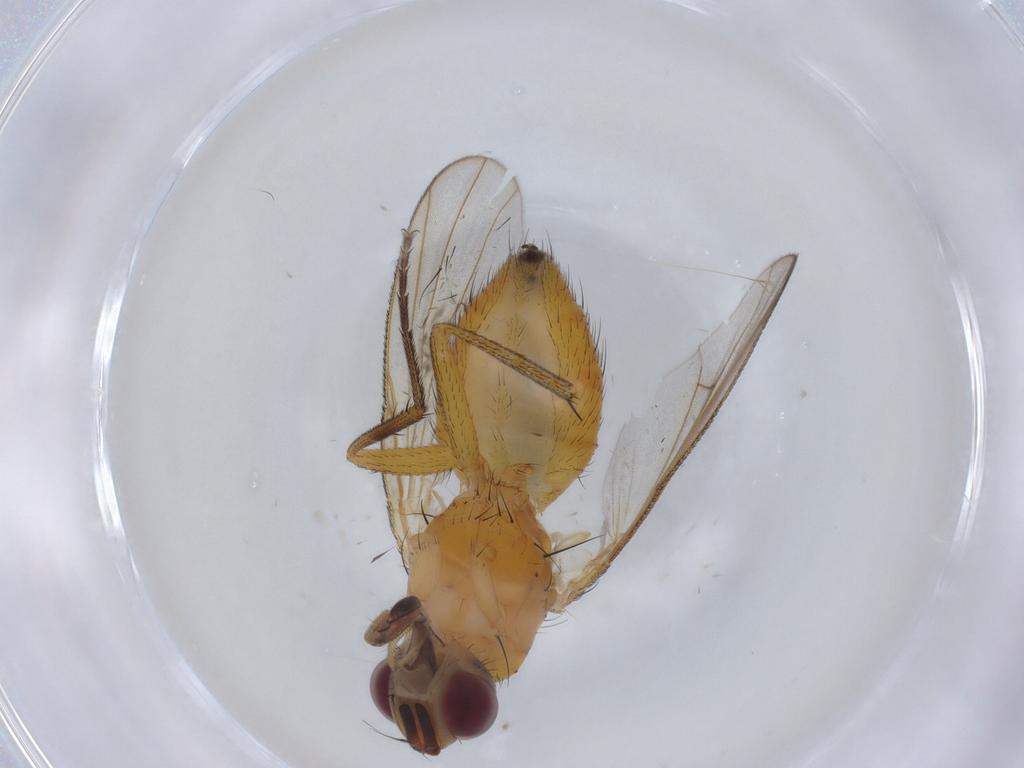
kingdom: Animalia
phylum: Arthropoda
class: Insecta
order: Diptera
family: Muscidae
